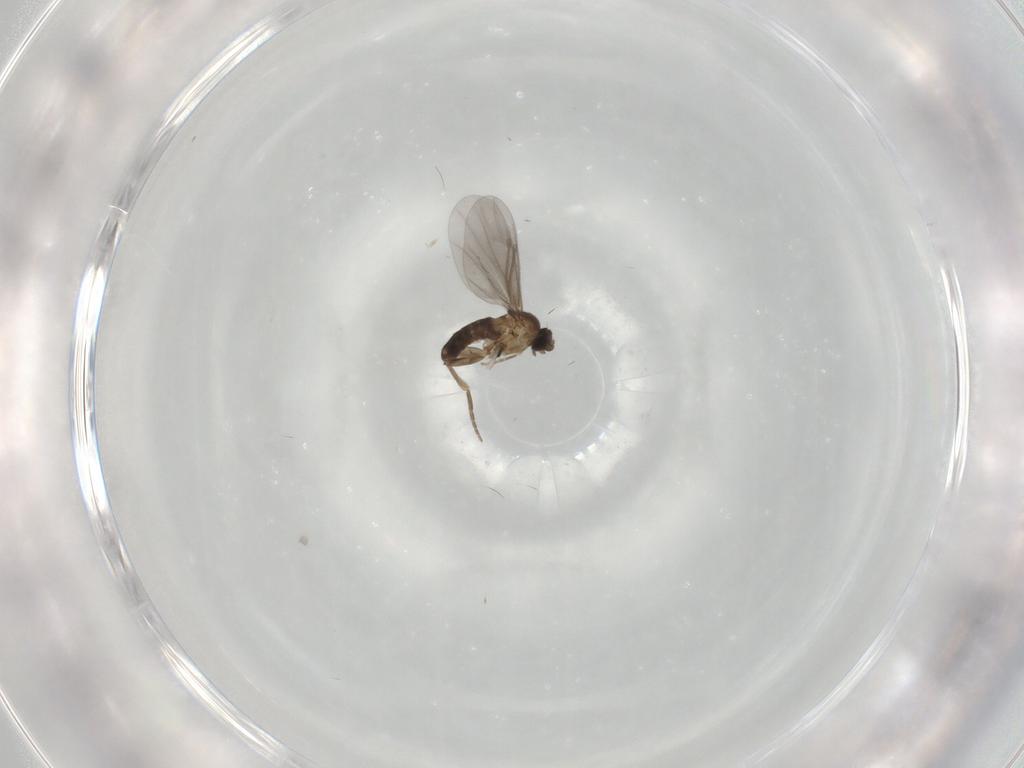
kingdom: Animalia
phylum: Arthropoda
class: Insecta
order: Diptera
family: Phoridae
